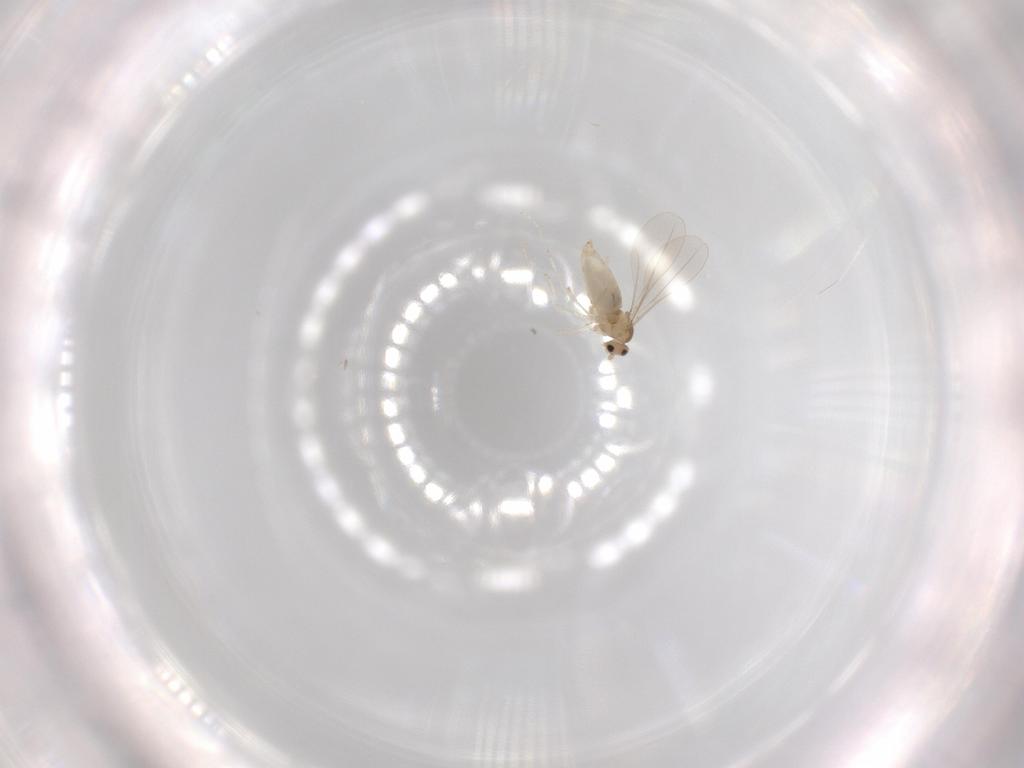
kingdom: Animalia
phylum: Arthropoda
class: Insecta
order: Diptera
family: Cecidomyiidae
